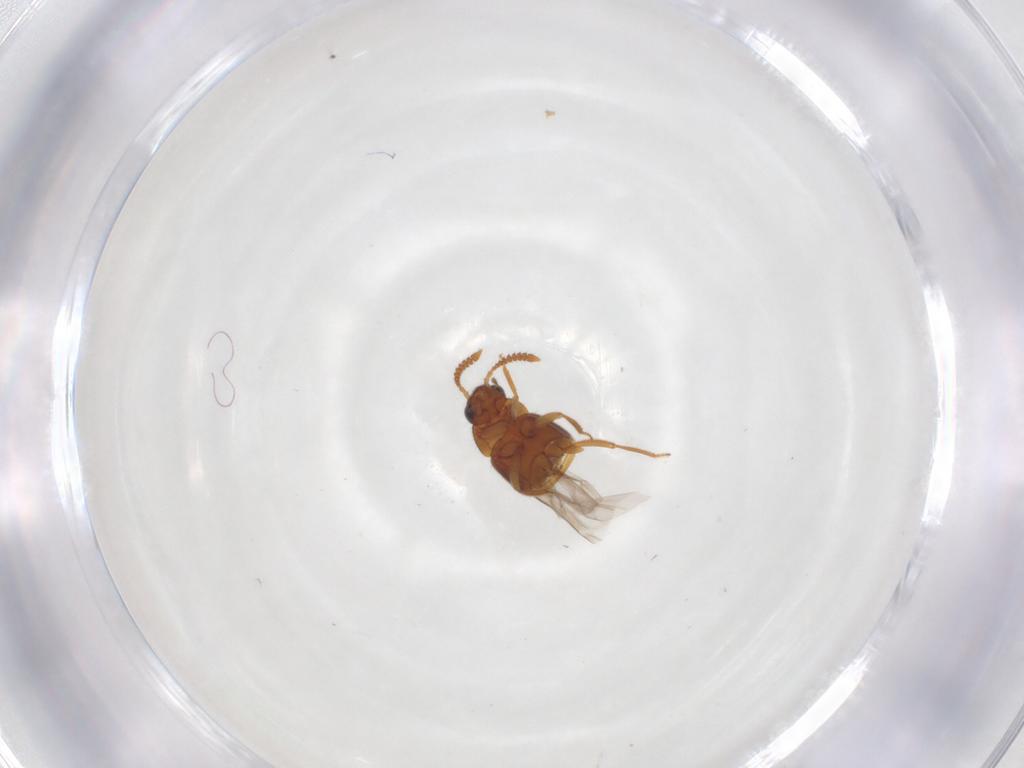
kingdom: Animalia
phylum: Arthropoda
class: Insecta
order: Coleoptera
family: Staphylinidae
